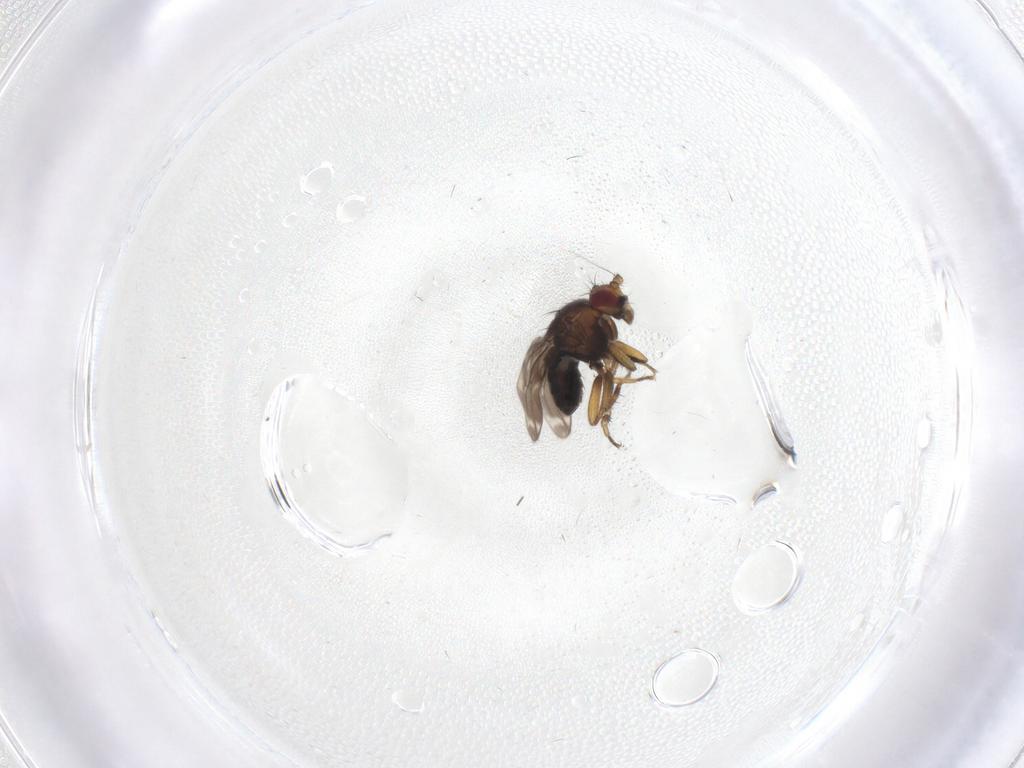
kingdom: Animalia
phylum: Arthropoda
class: Insecta
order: Diptera
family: Sphaeroceridae
